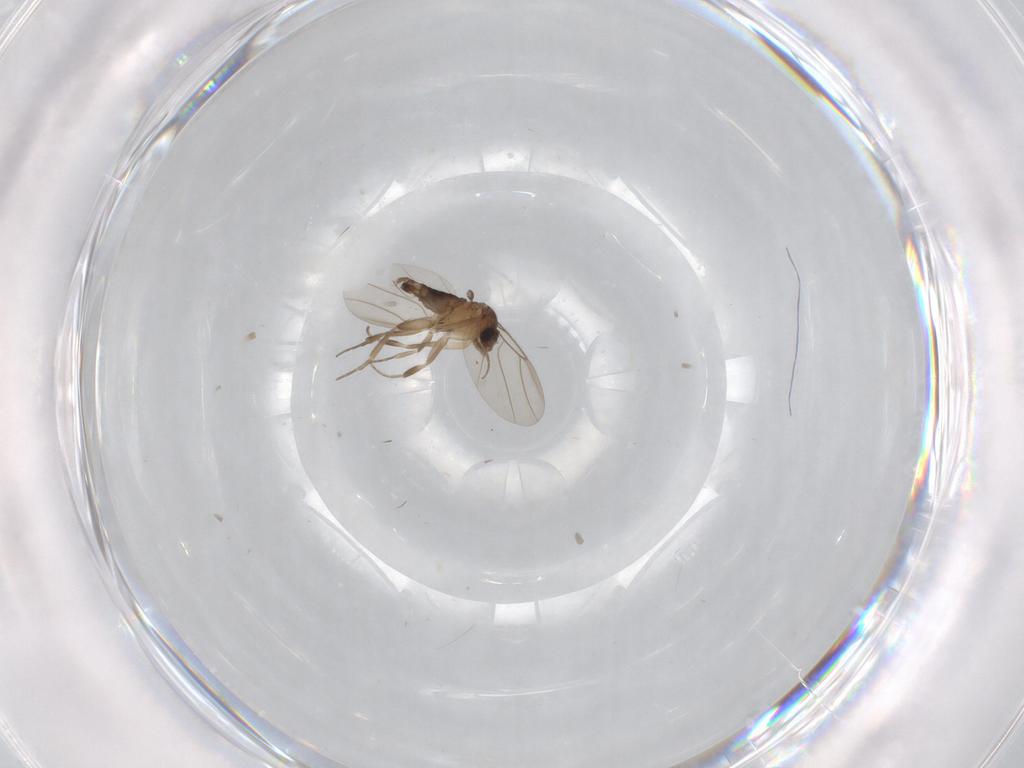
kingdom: Animalia
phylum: Arthropoda
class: Insecta
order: Diptera
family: Phoridae
